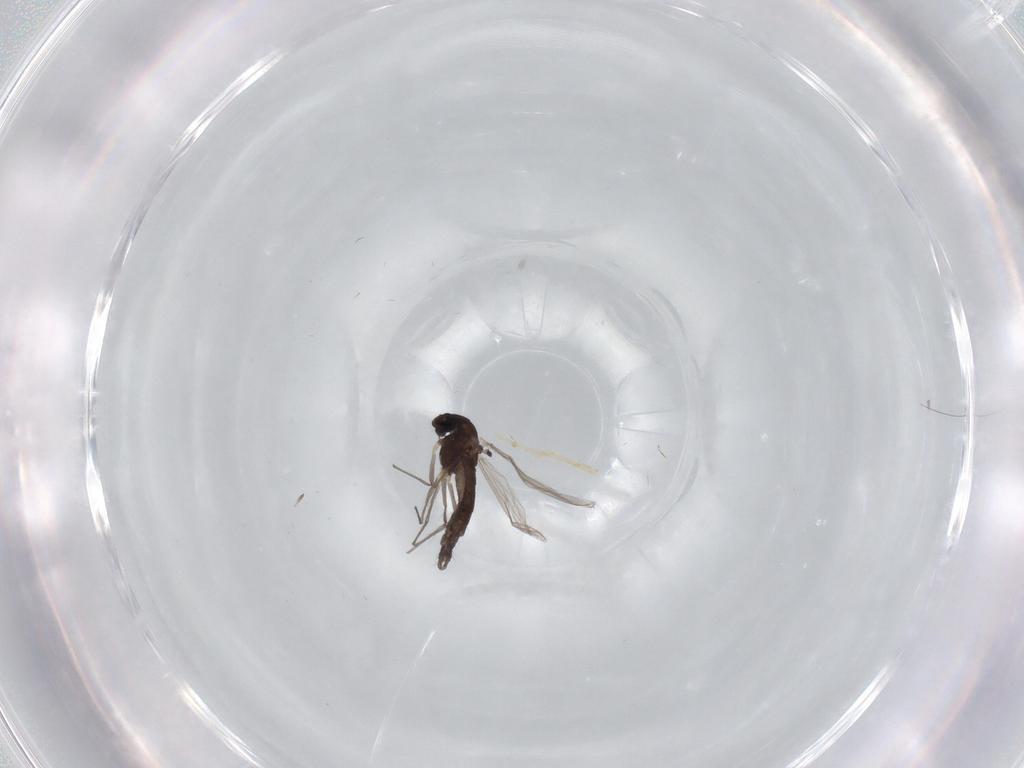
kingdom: Animalia
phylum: Arthropoda
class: Insecta
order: Diptera
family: Chironomidae
